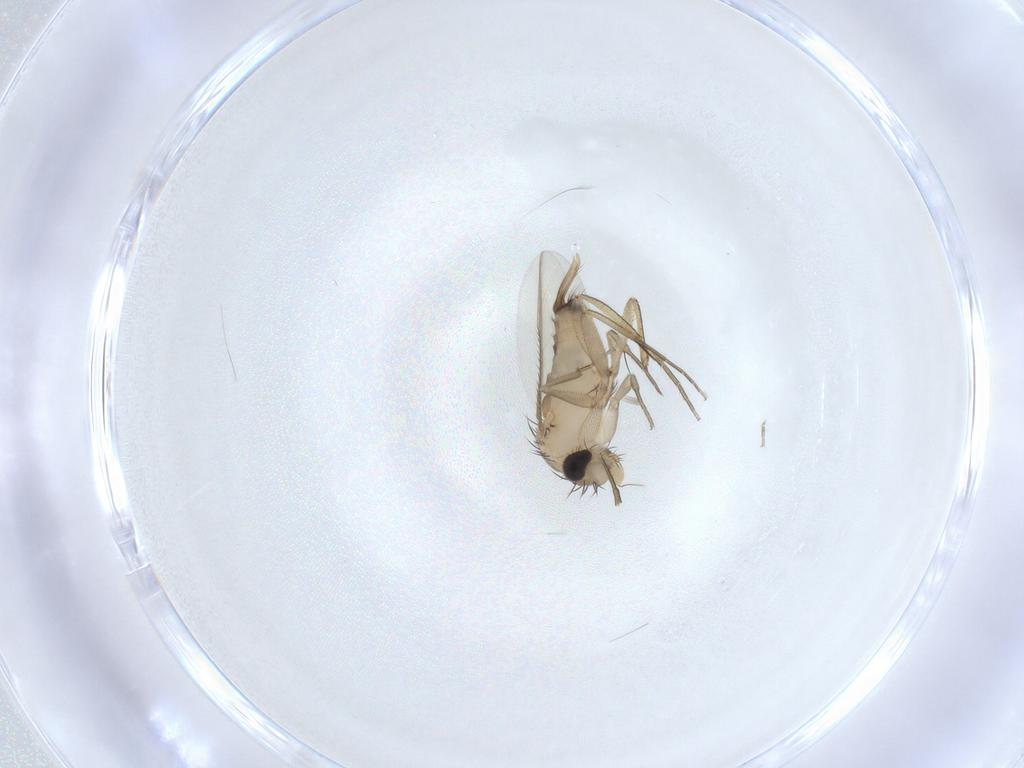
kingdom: Animalia
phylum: Arthropoda
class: Insecta
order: Diptera
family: Phoridae
